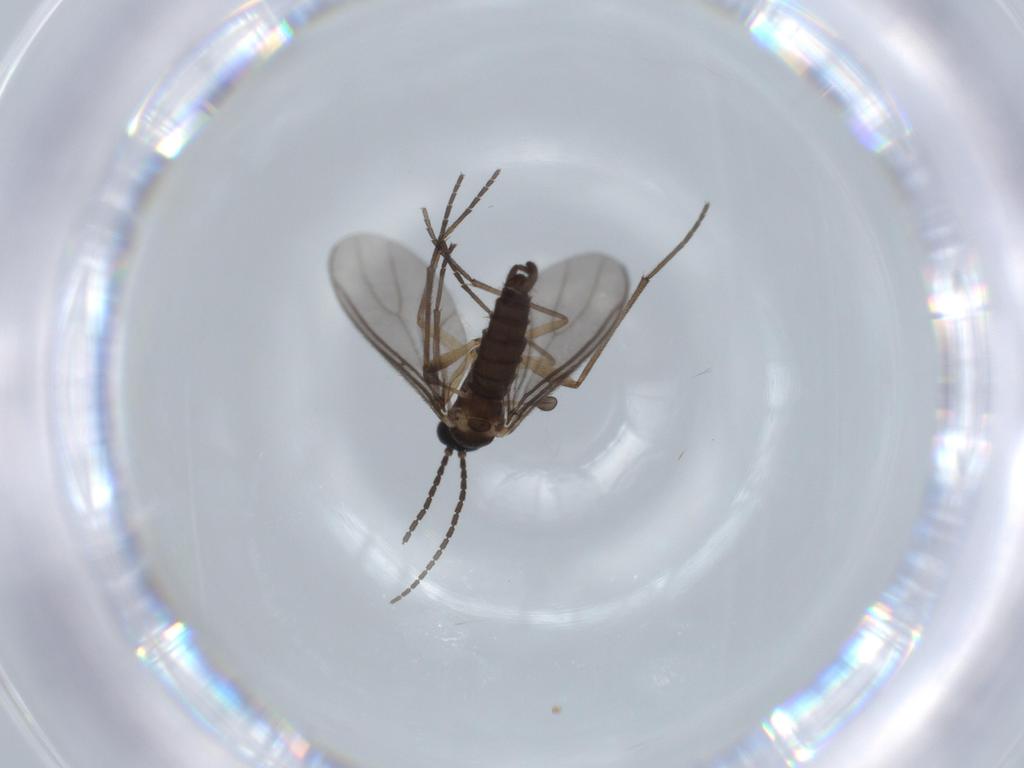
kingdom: Animalia
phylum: Arthropoda
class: Insecta
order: Diptera
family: Sciaridae
